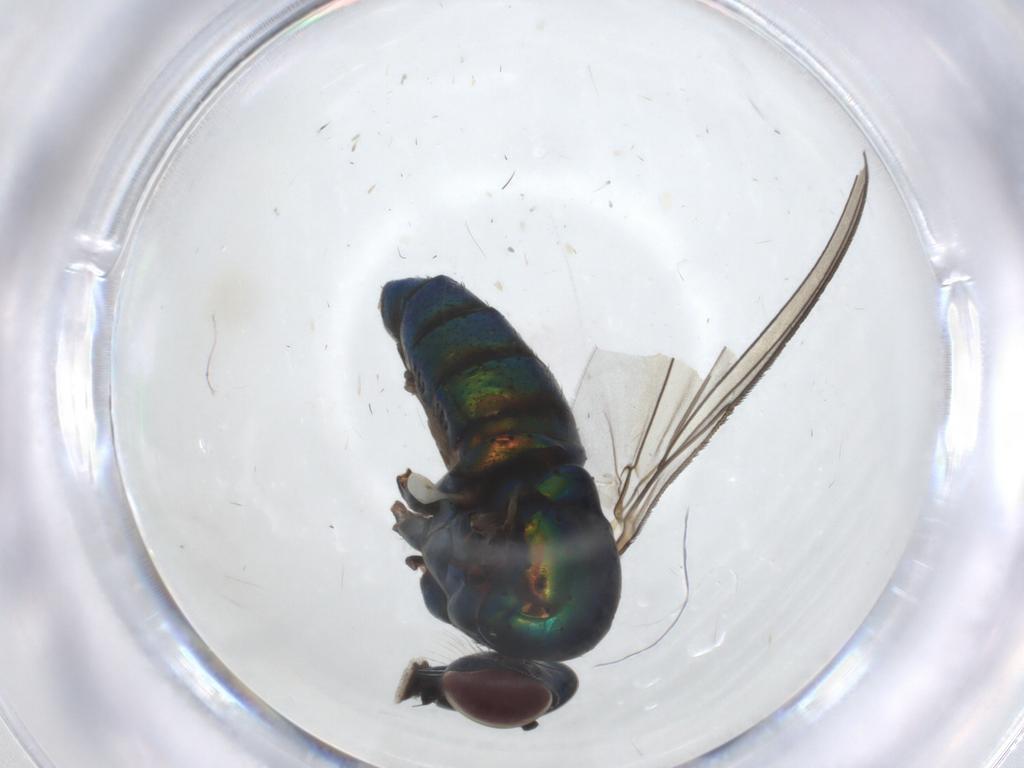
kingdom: Animalia
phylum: Arthropoda
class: Insecta
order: Diptera
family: Dolichopodidae
